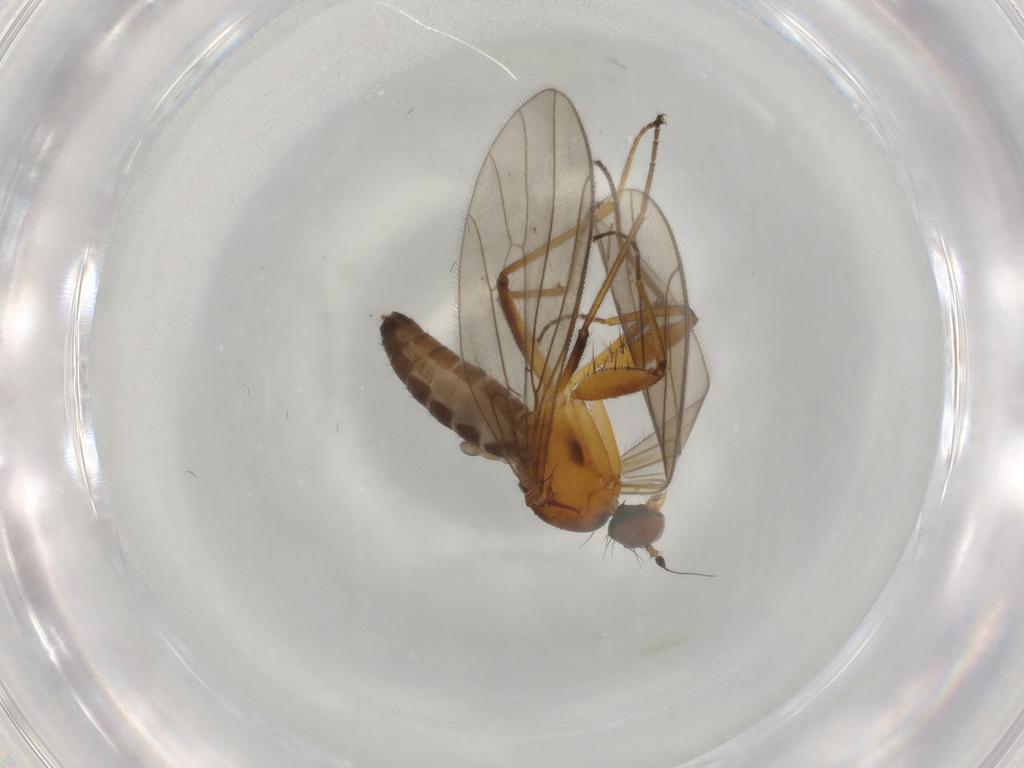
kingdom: Animalia
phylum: Arthropoda
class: Insecta
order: Diptera
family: Empididae
